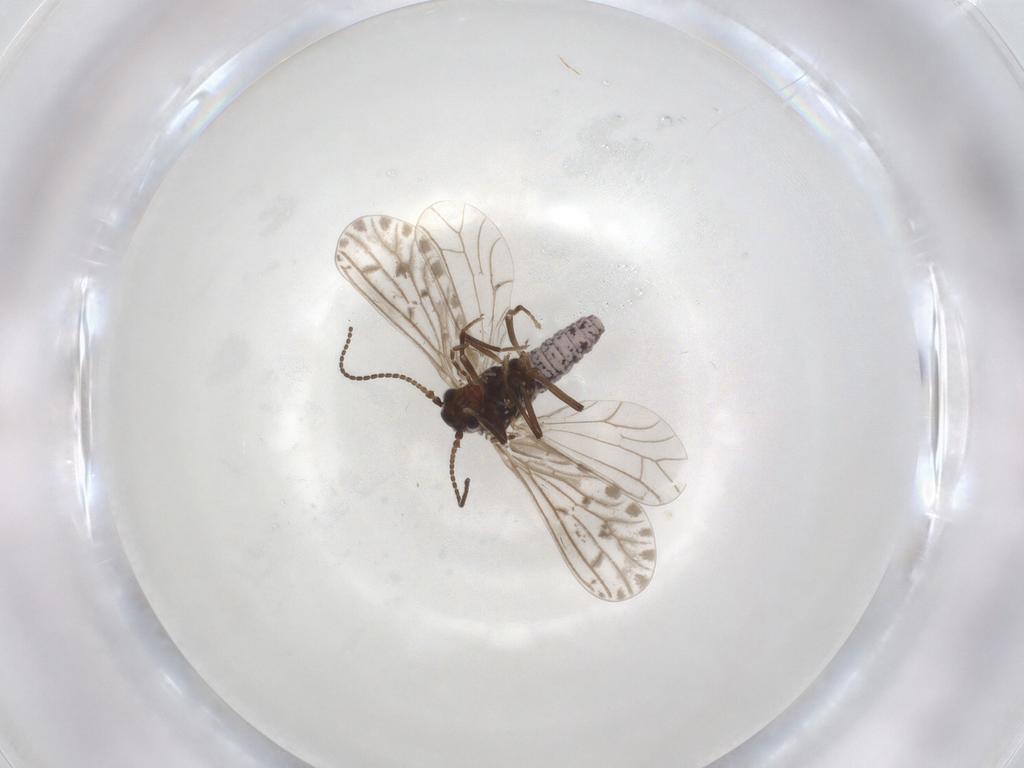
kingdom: Animalia
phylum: Arthropoda
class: Insecta
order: Neuroptera
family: Coniopterygidae
